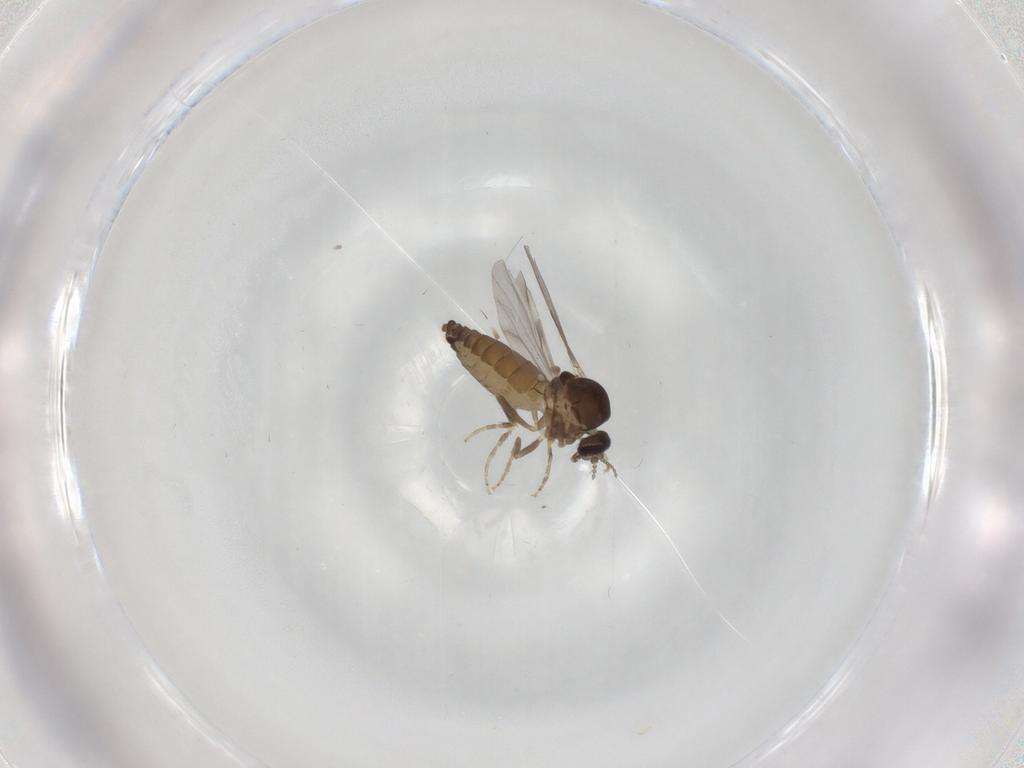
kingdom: Animalia
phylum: Arthropoda
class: Insecta
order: Diptera
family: Ceratopogonidae
